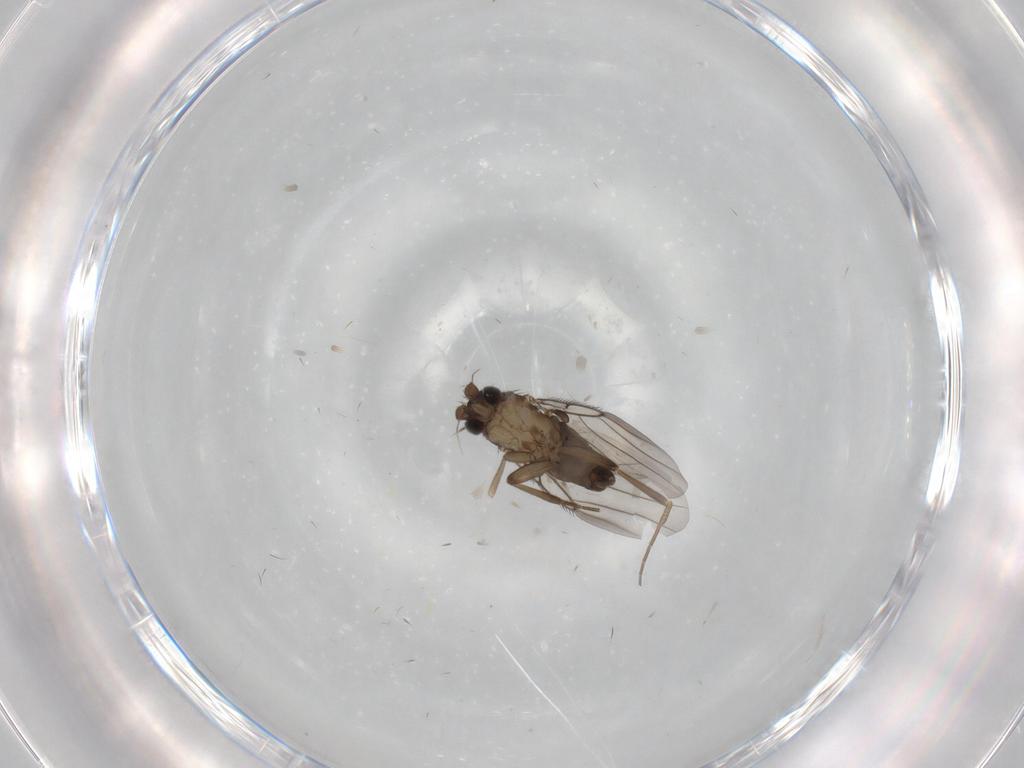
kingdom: Animalia
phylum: Arthropoda
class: Insecta
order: Diptera
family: Phoridae
